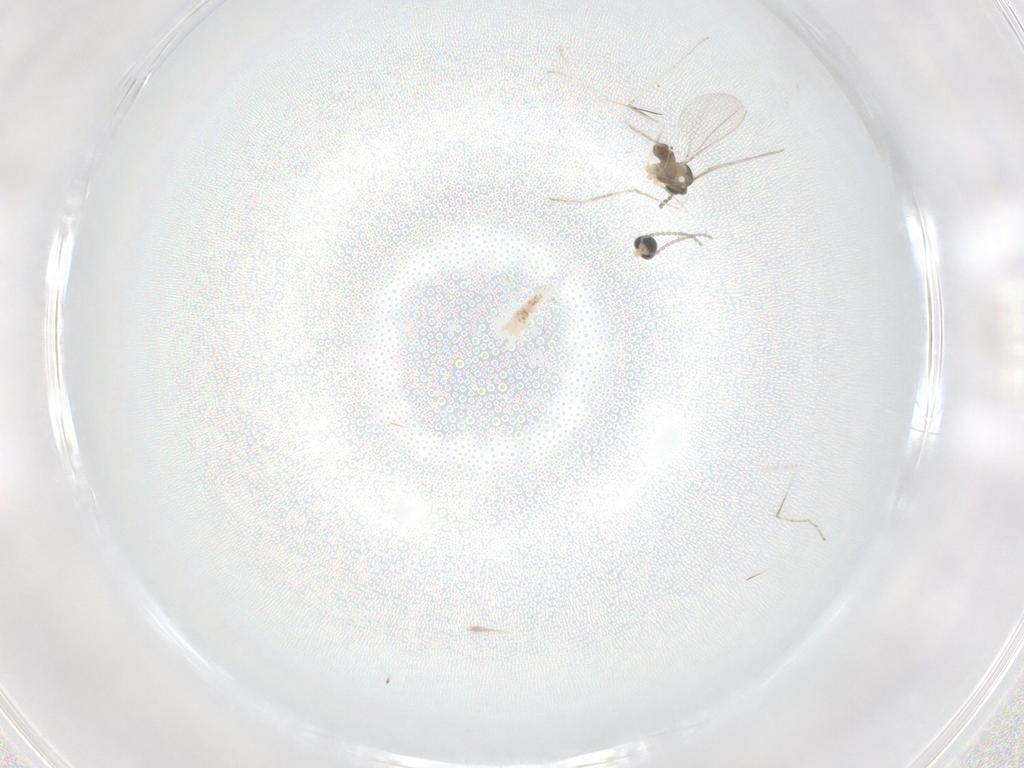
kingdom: Animalia
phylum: Arthropoda
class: Insecta
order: Diptera
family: Cecidomyiidae
